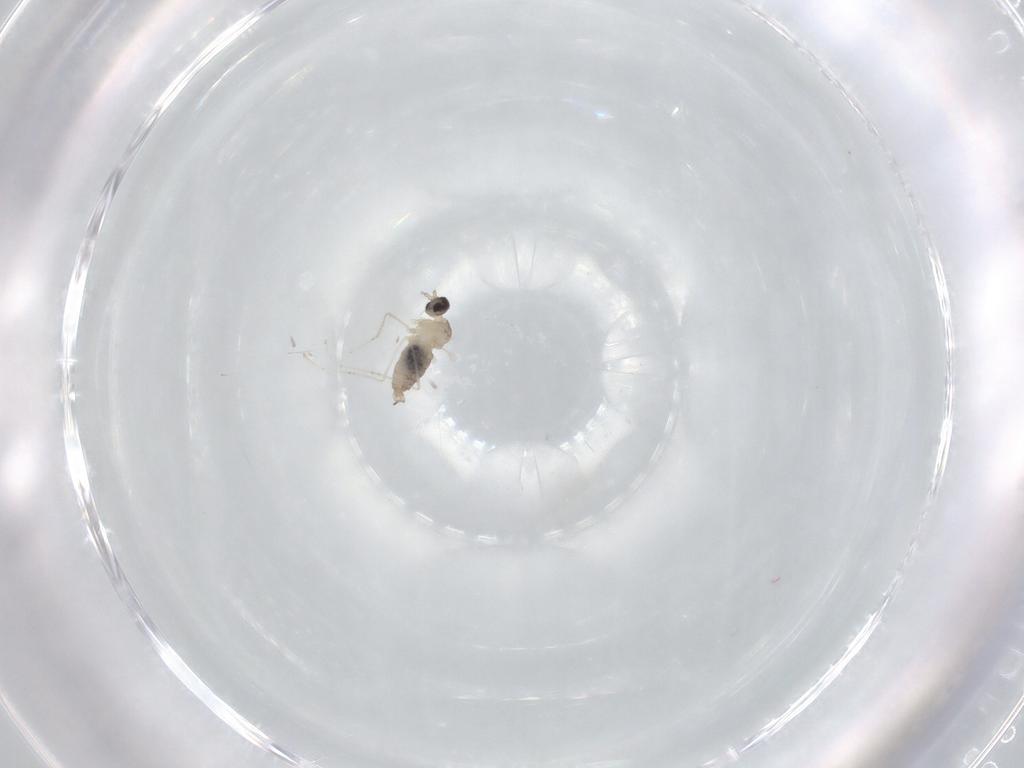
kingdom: Animalia
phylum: Arthropoda
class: Insecta
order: Diptera
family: Cecidomyiidae
